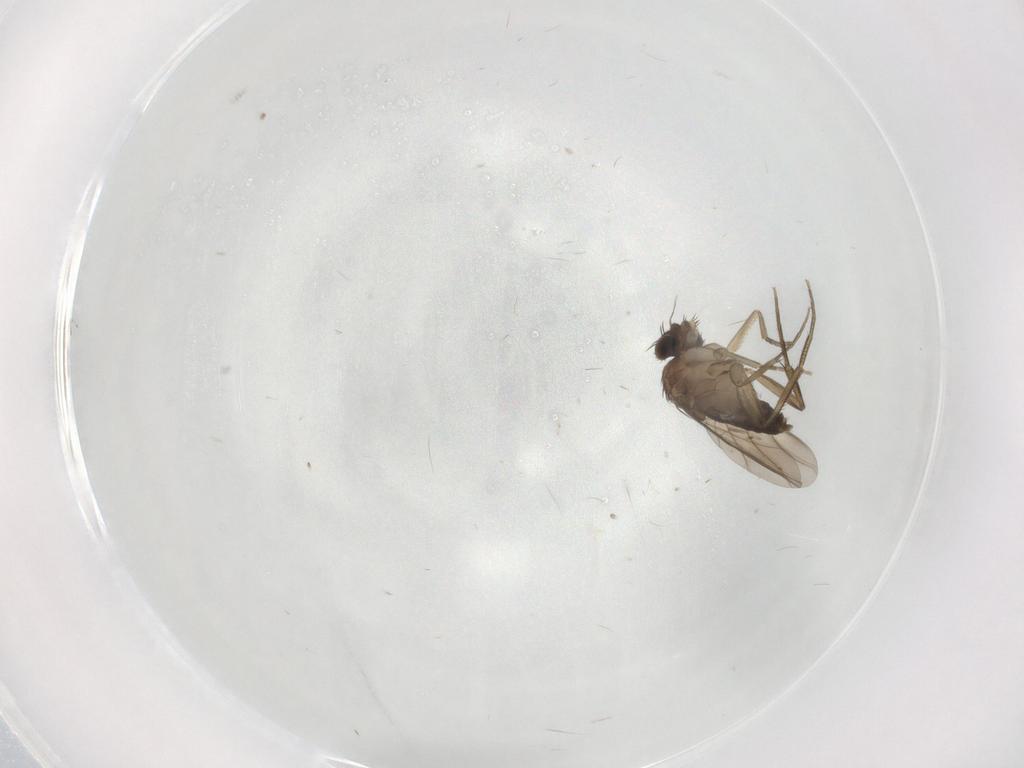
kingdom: Animalia
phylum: Arthropoda
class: Insecta
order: Diptera
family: Phoridae
